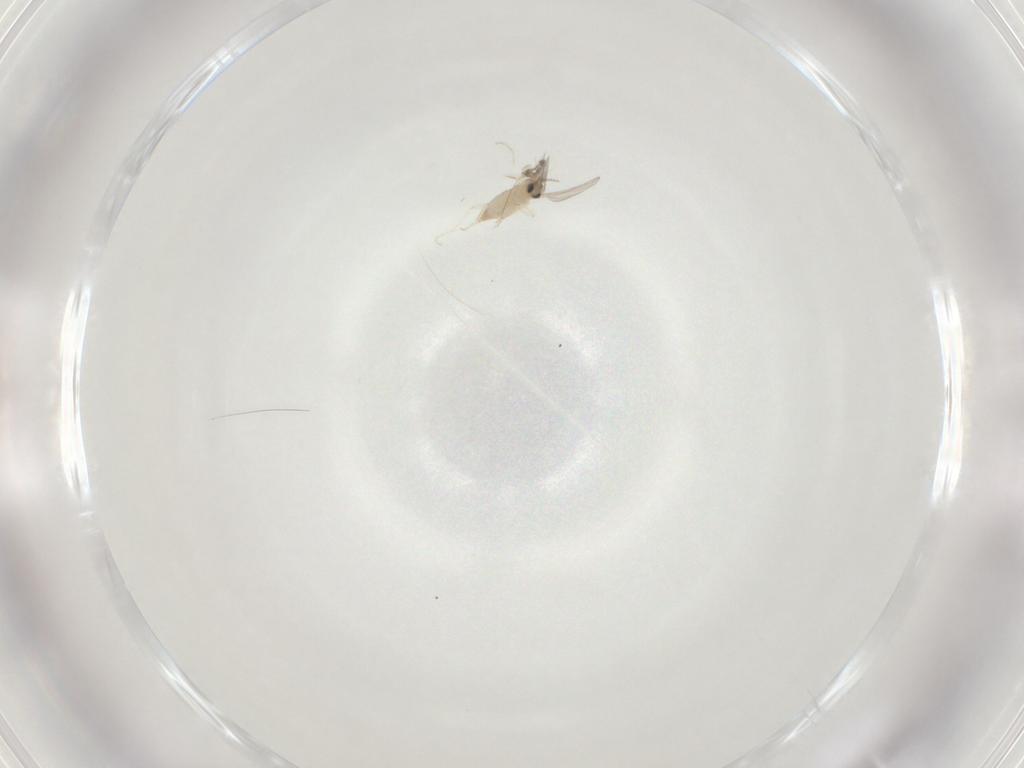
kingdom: Animalia
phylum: Arthropoda
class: Insecta
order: Diptera
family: Cecidomyiidae
